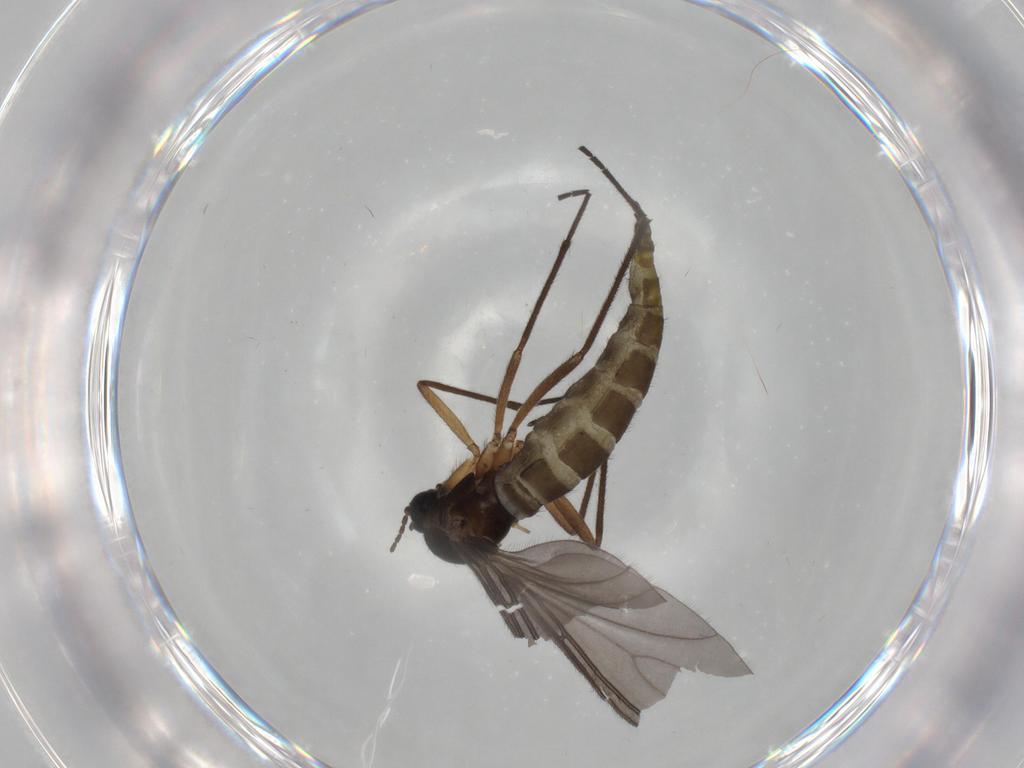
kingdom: Animalia
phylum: Arthropoda
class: Insecta
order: Diptera
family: Sciaridae
